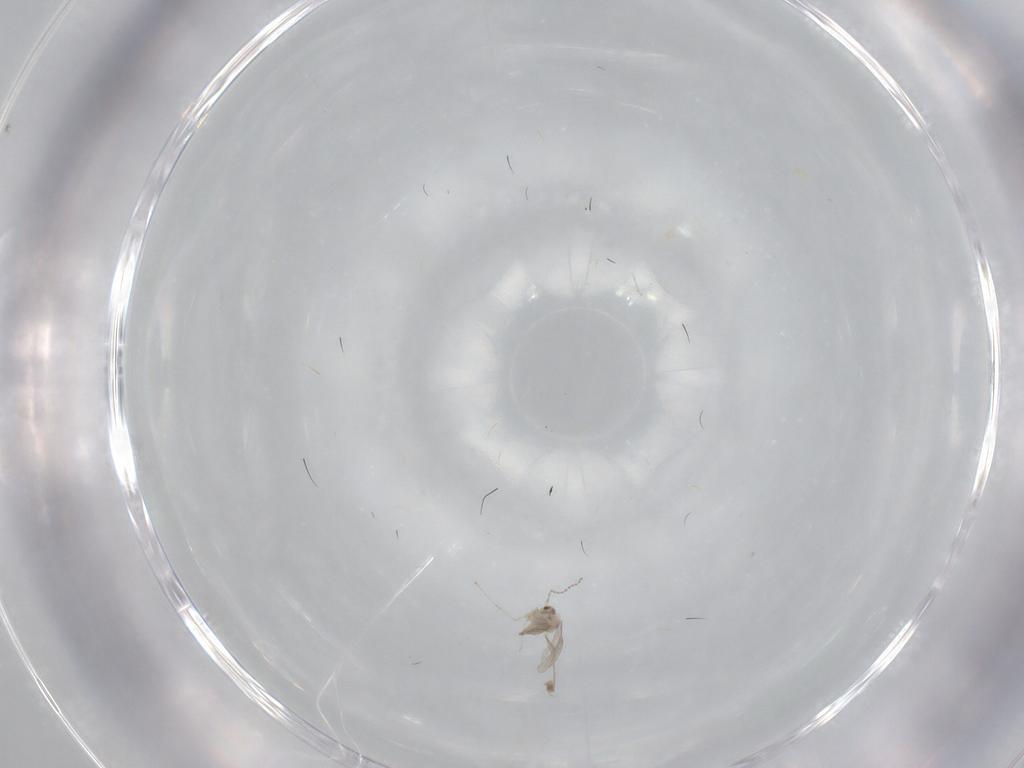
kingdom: Animalia
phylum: Arthropoda
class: Insecta
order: Diptera
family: Cecidomyiidae
